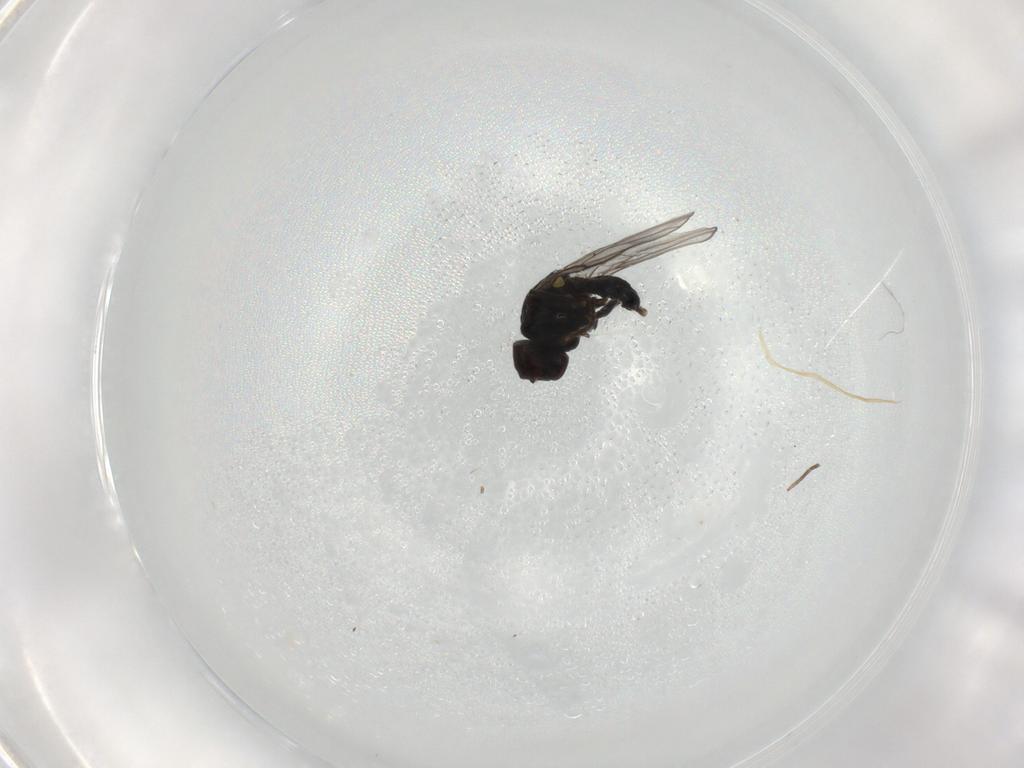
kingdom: Animalia
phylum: Arthropoda
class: Insecta
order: Diptera
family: Chloropidae
